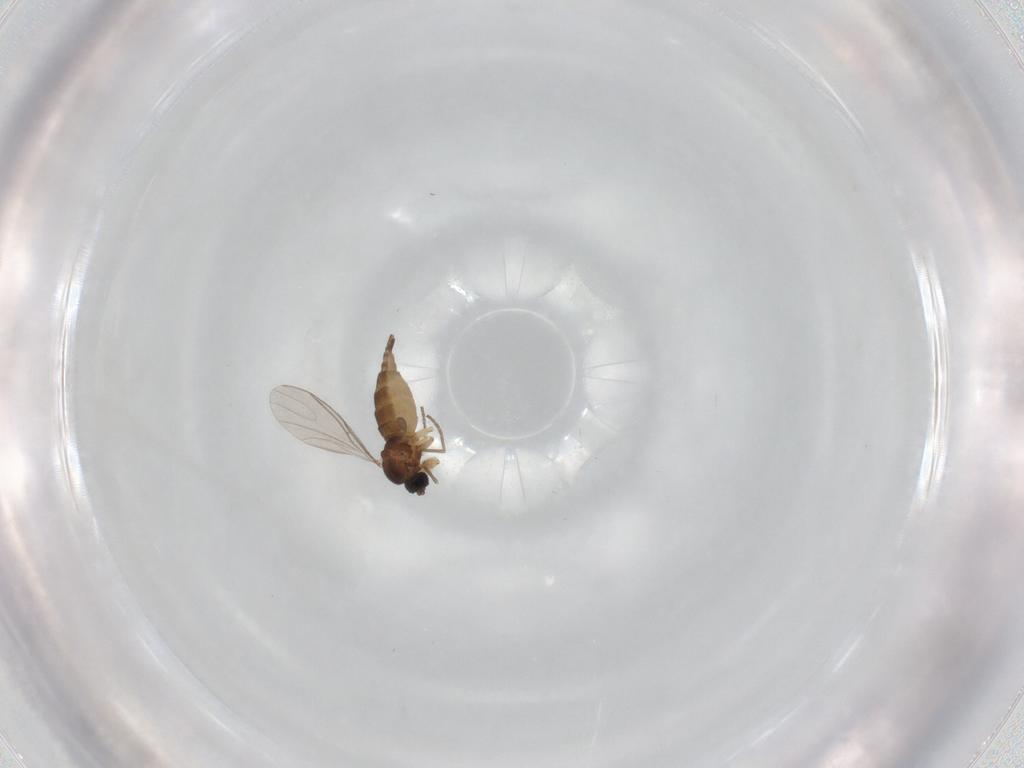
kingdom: Animalia
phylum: Arthropoda
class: Insecta
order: Diptera
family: Sciaridae
